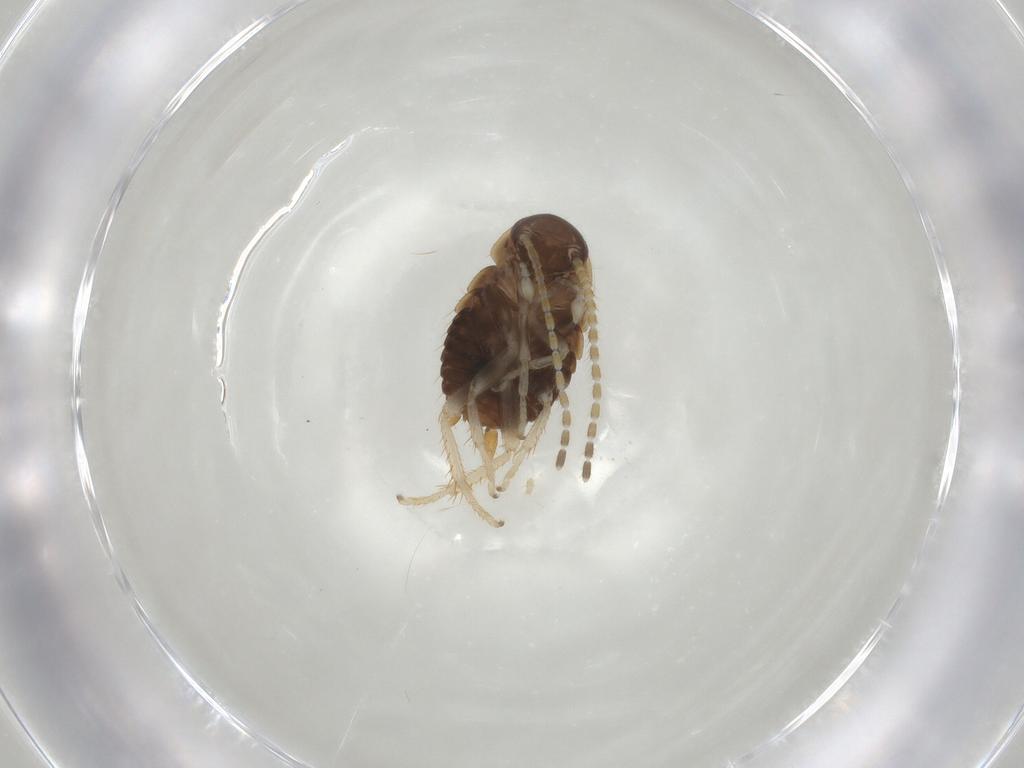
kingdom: Animalia
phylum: Arthropoda
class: Insecta
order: Blattodea
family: Ectobiidae
